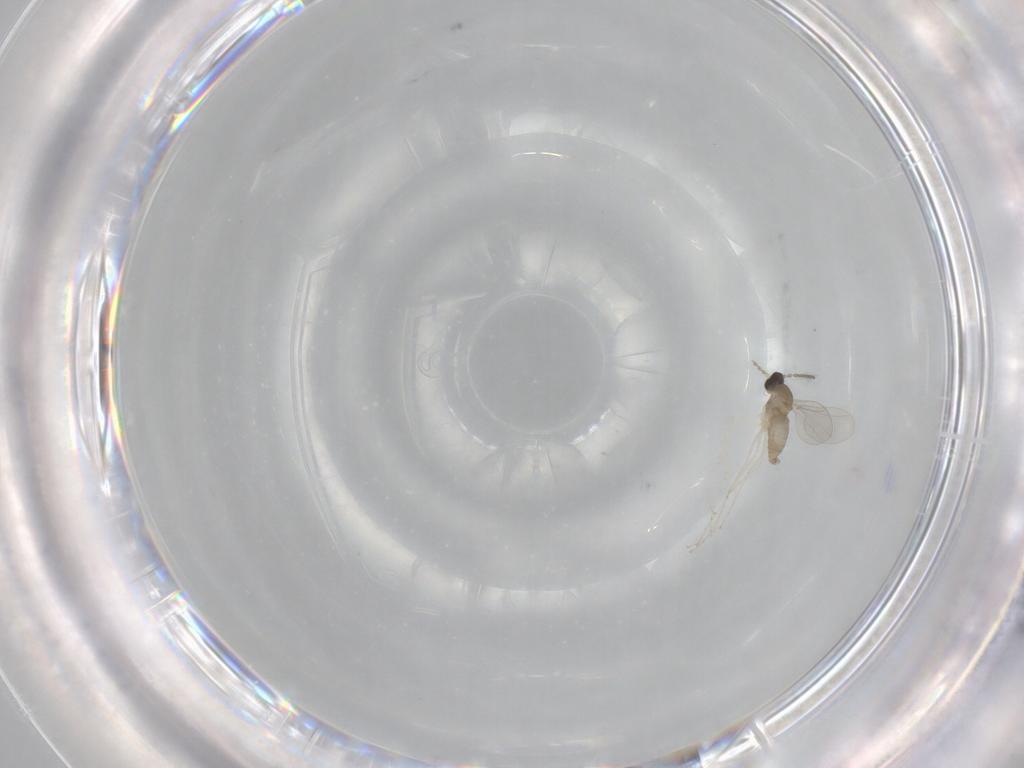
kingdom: Animalia
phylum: Arthropoda
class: Insecta
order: Diptera
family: Cecidomyiidae
